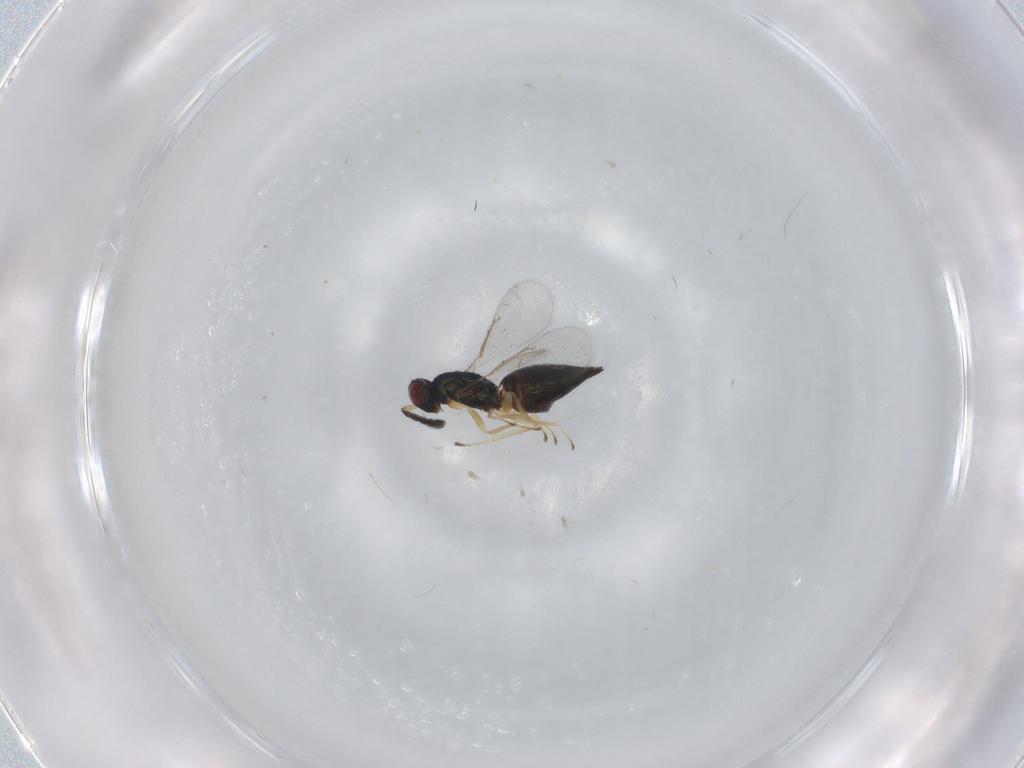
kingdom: Animalia
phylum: Arthropoda
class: Insecta
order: Hymenoptera
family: Eulophidae
